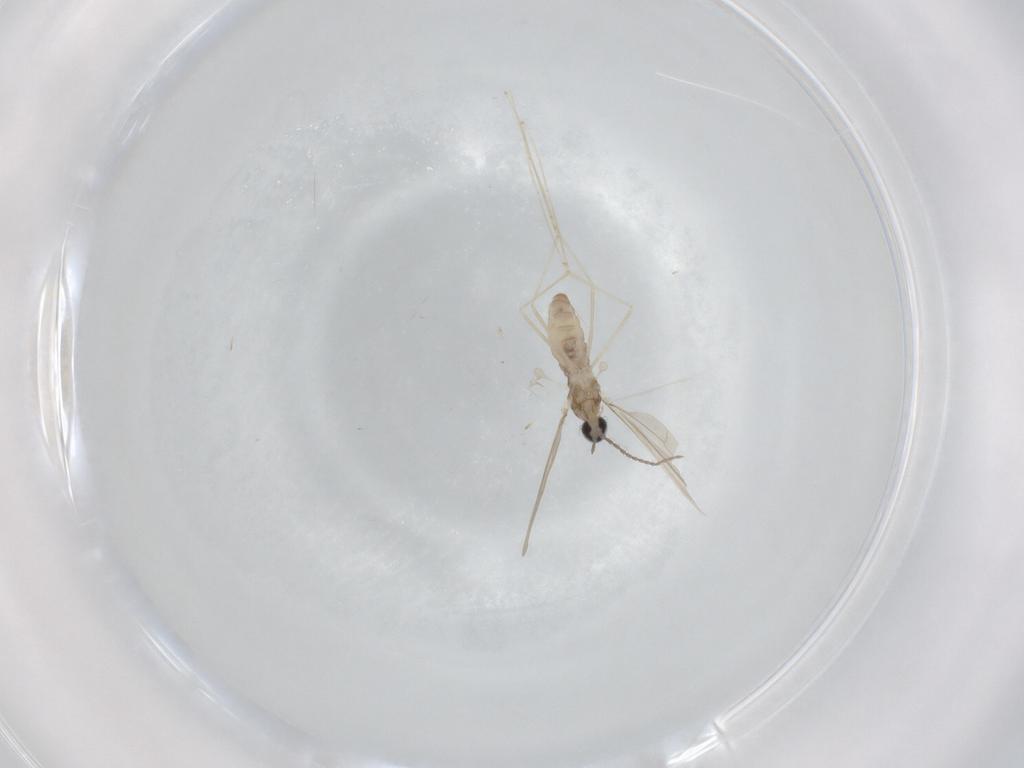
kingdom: Animalia
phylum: Arthropoda
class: Insecta
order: Diptera
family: Cecidomyiidae
